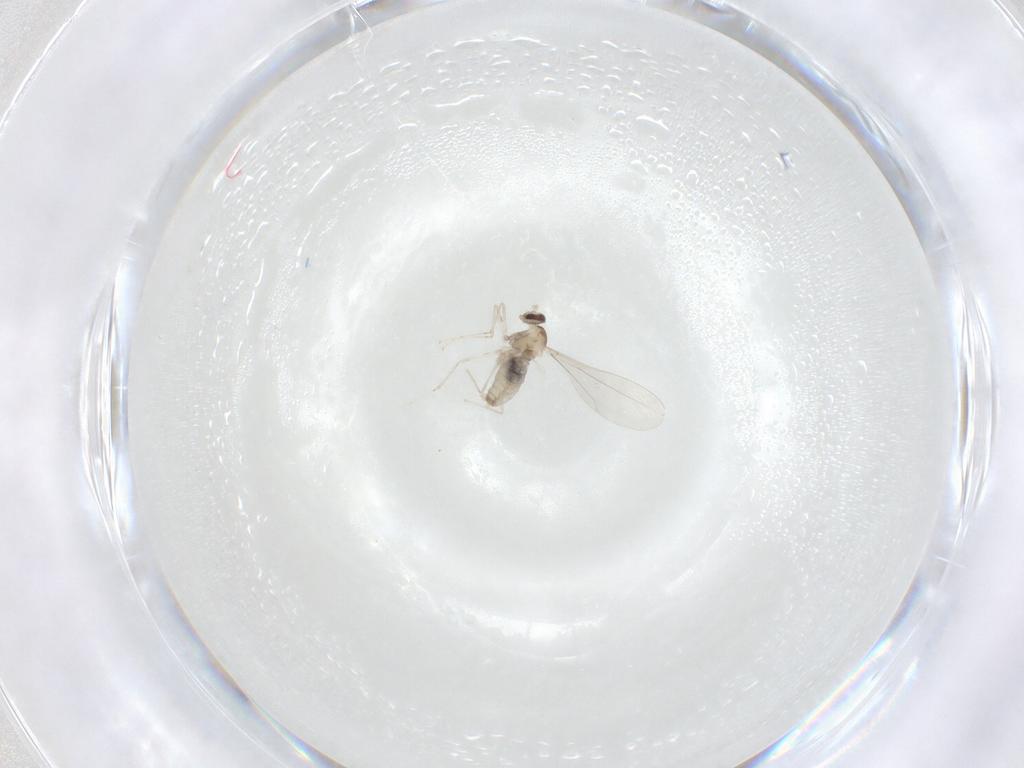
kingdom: Animalia
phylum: Arthropoda
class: Insecta
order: Diptera
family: Cecidomyiidae
